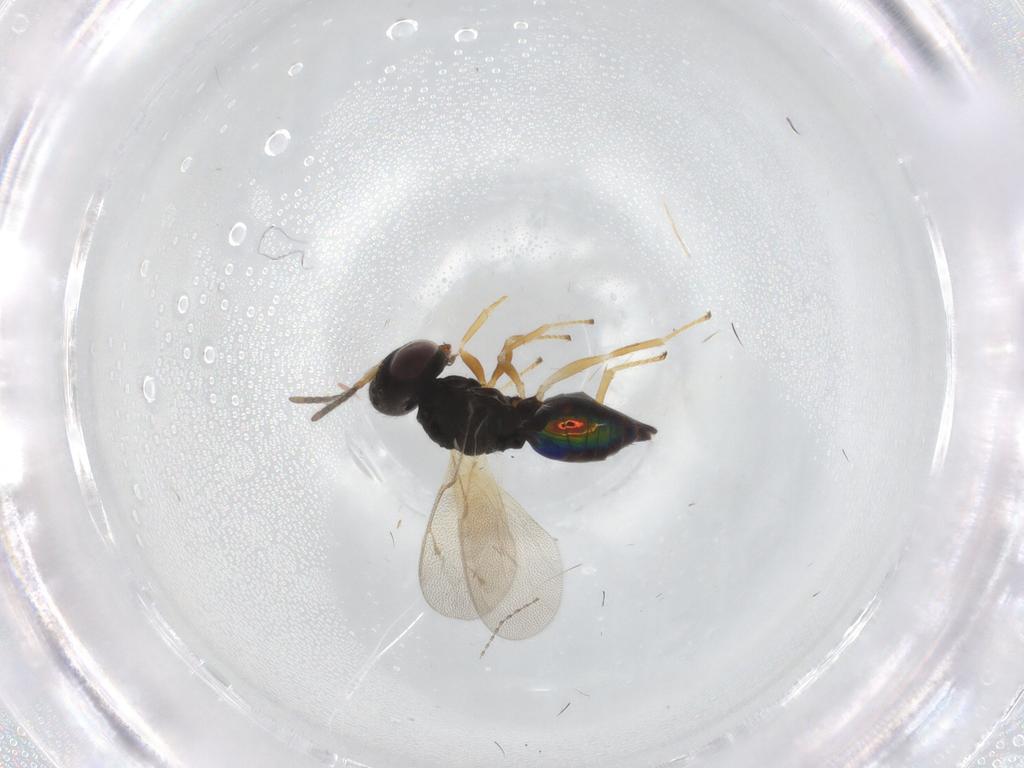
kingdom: Animalia
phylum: Arthropoda
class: Insecta
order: Hymenoptera
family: Pteromalidae
